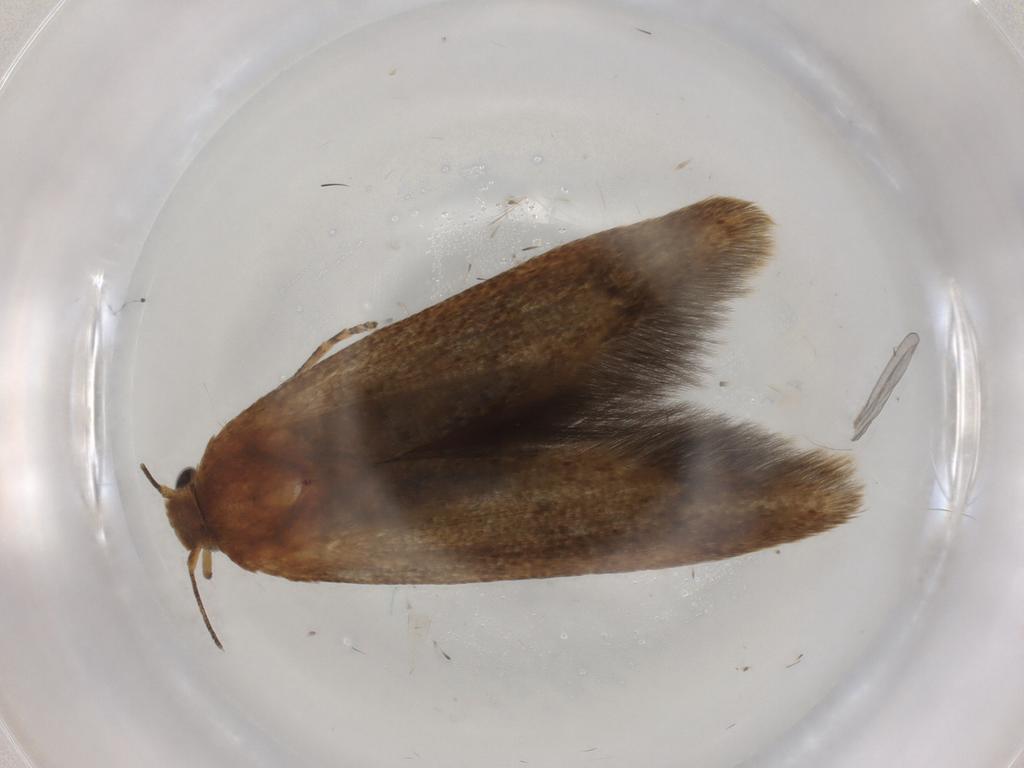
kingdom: Animalia
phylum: Arthropoda
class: Insecta
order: Lepidoptera
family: Blastobasidae
